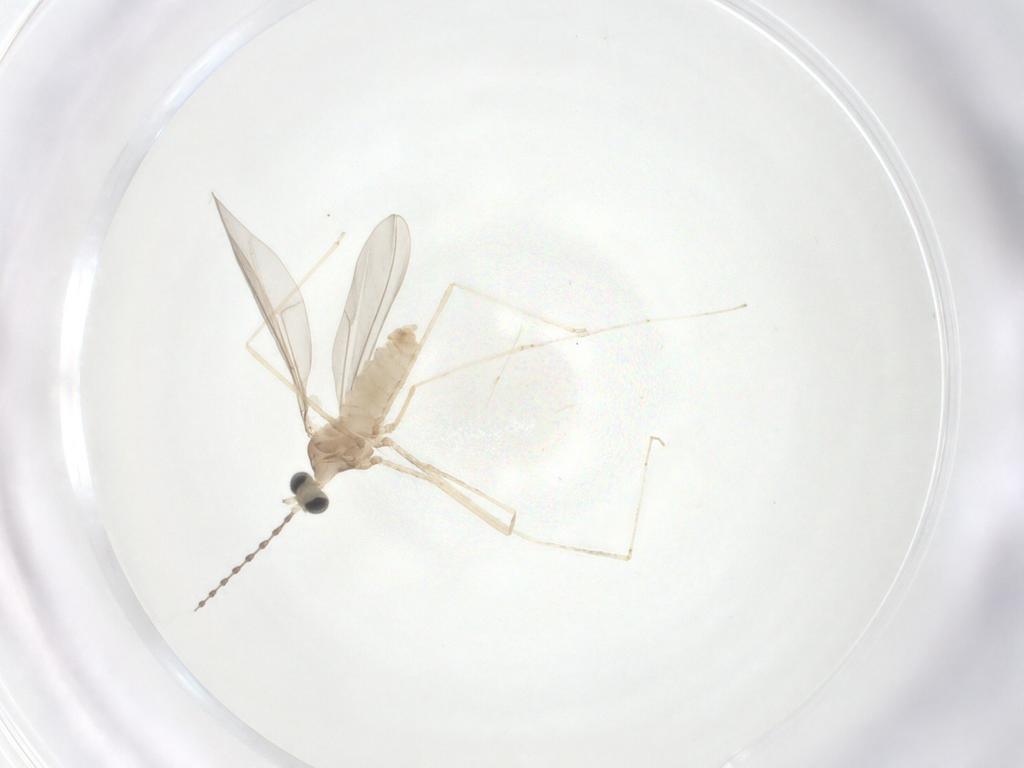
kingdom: Animalia
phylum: Arthropoda
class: Insecta
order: Diptera
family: Cecidomyiidae
